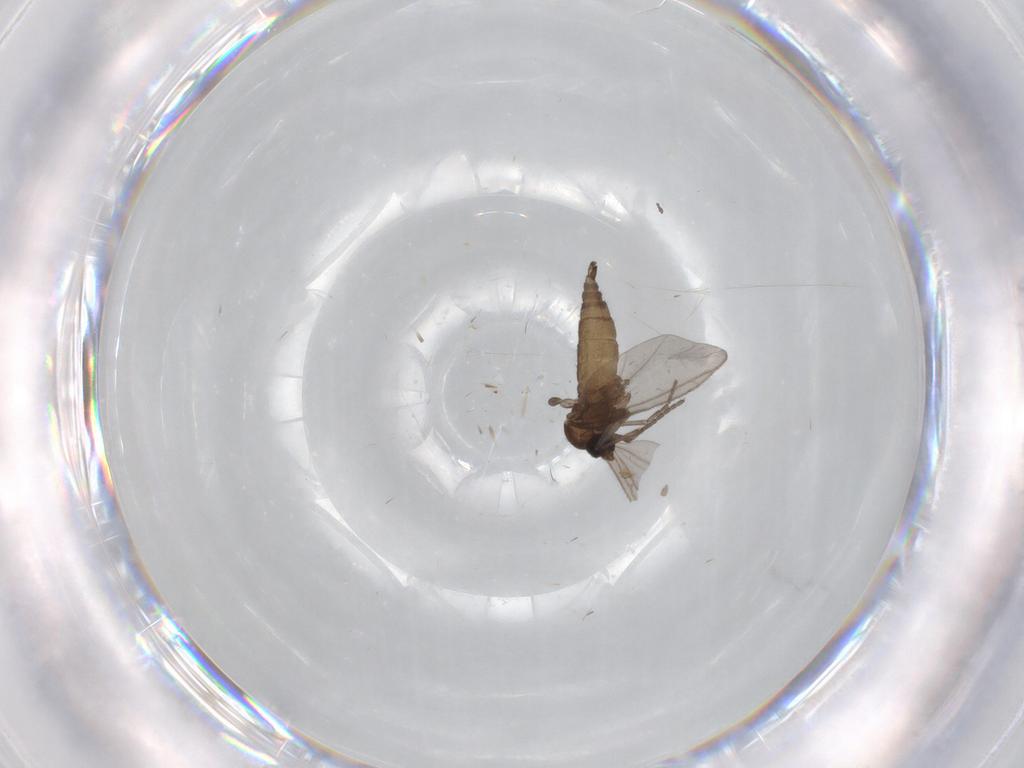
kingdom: Animalia
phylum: Arthropoda
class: Insecta
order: Diptera
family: Sciaridae
